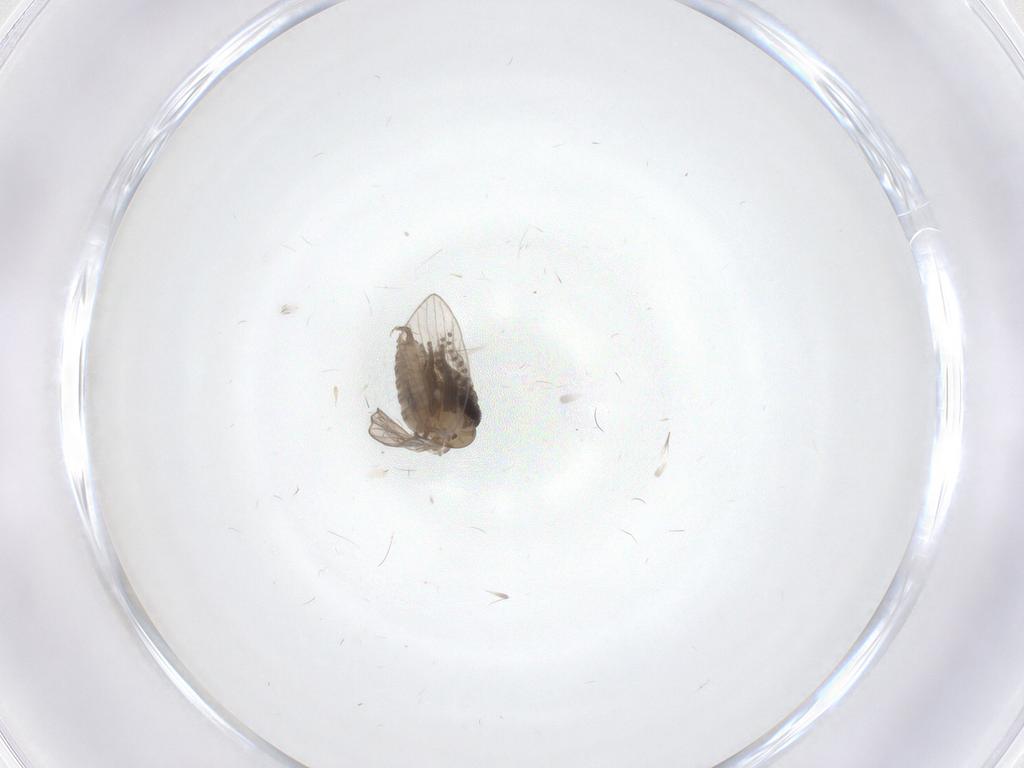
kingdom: Animalia
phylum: Arthropoda
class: Insecta
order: Diptera
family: Psychodidae
